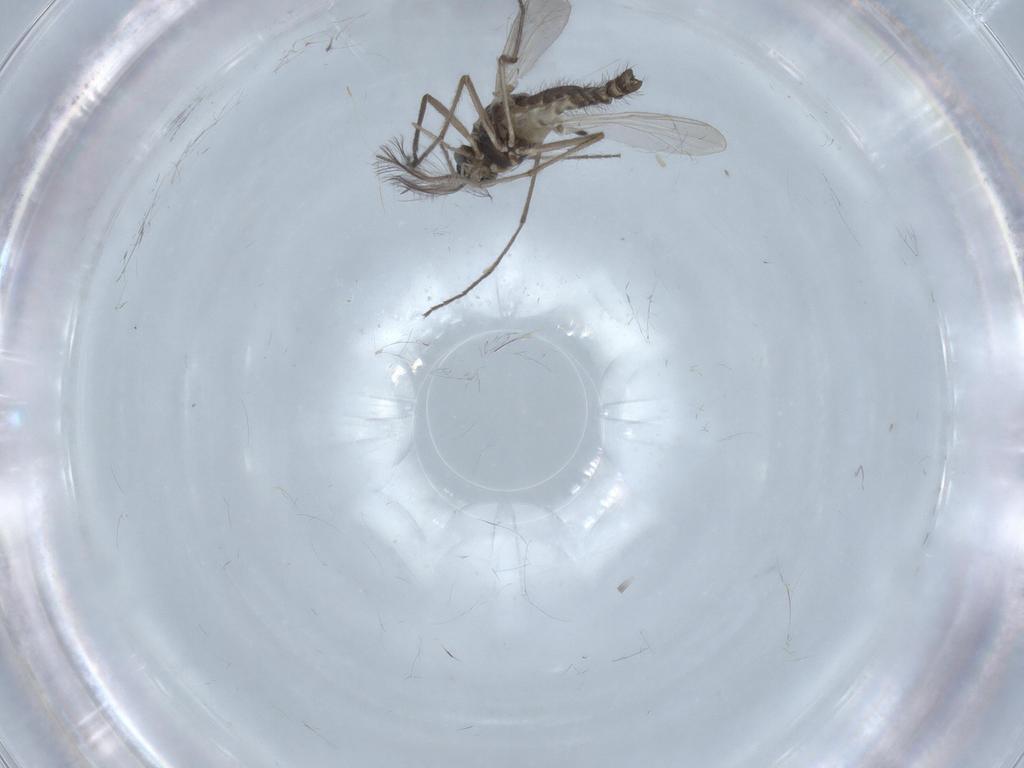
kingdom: Animalia
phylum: Arthropoda
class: Insecta
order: Diptera
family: Chironomidae
